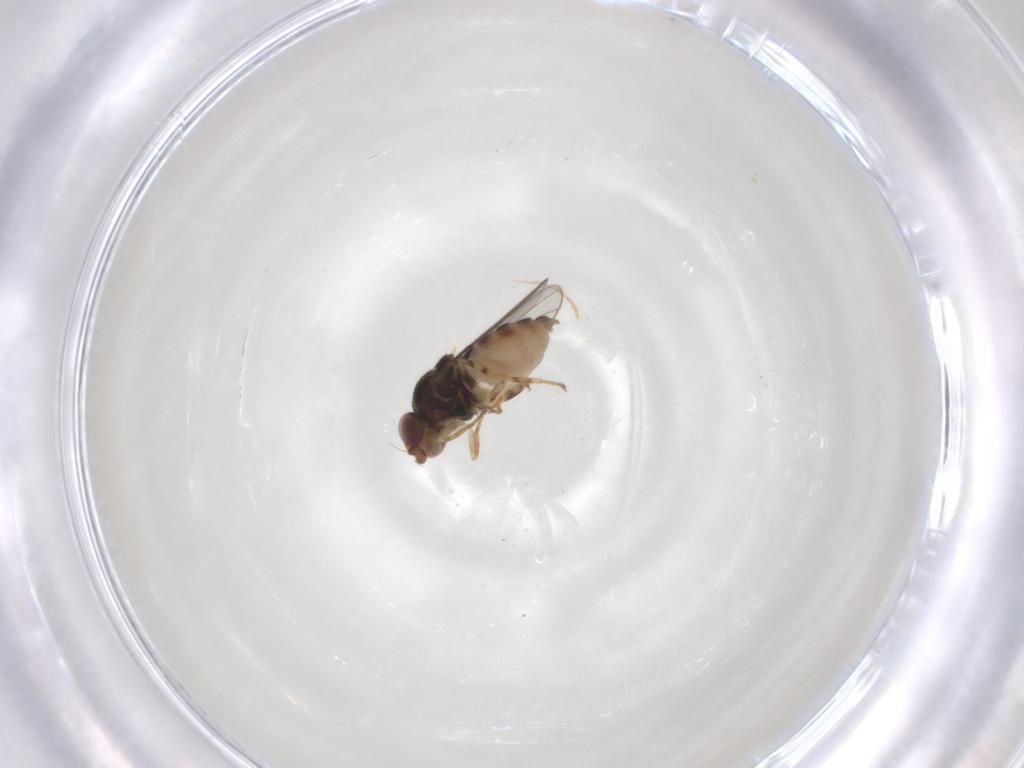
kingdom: Animalia
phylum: Arthropoda
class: Insecta
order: Diptera
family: Chloropidae
